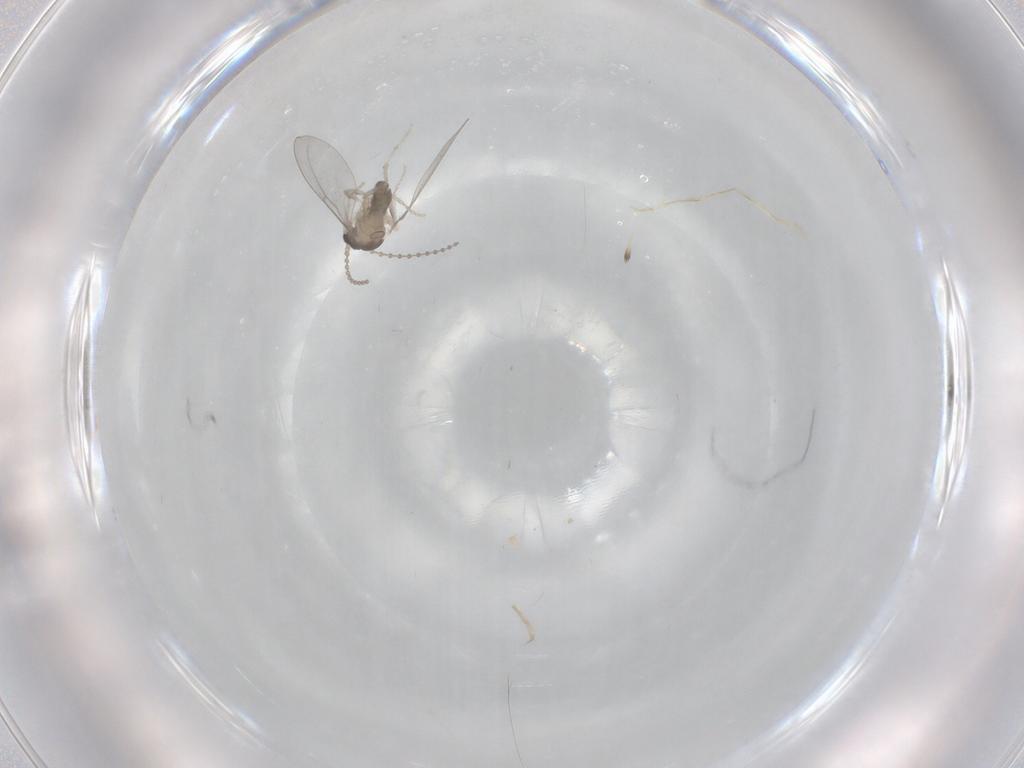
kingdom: Animalia
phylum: Arthropoda
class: Insecta
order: Diptera
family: Cecidomyiidae
